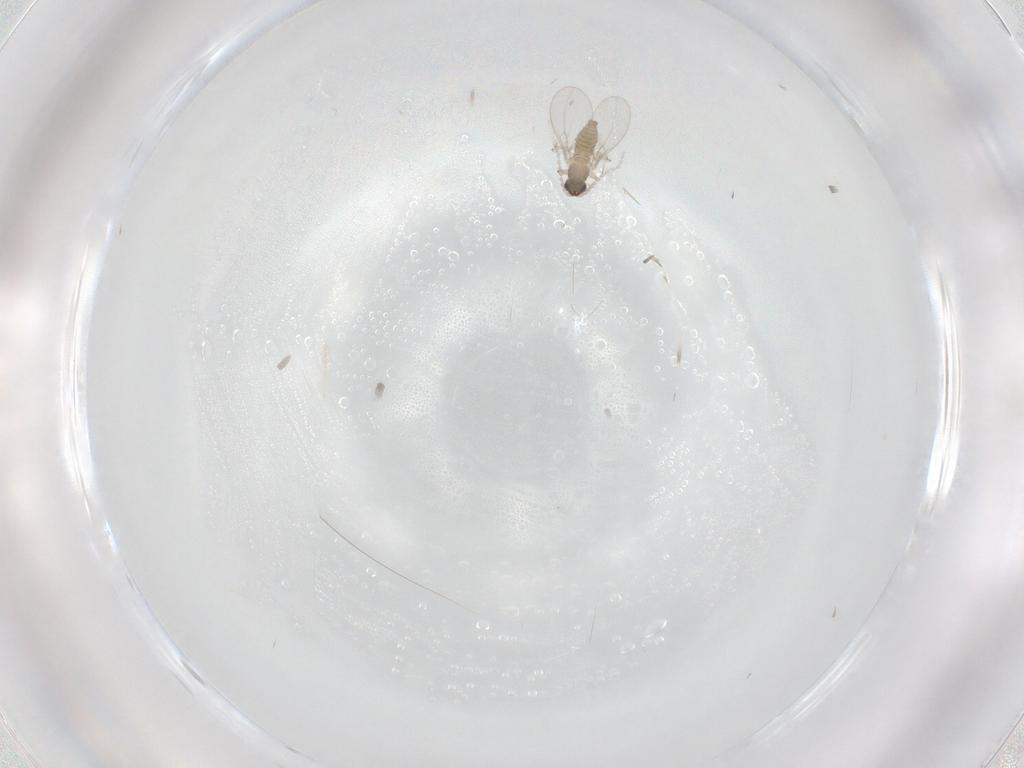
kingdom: Animalia
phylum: Arthropoda
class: Insecta
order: Diptera
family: Cecidomyiidae
